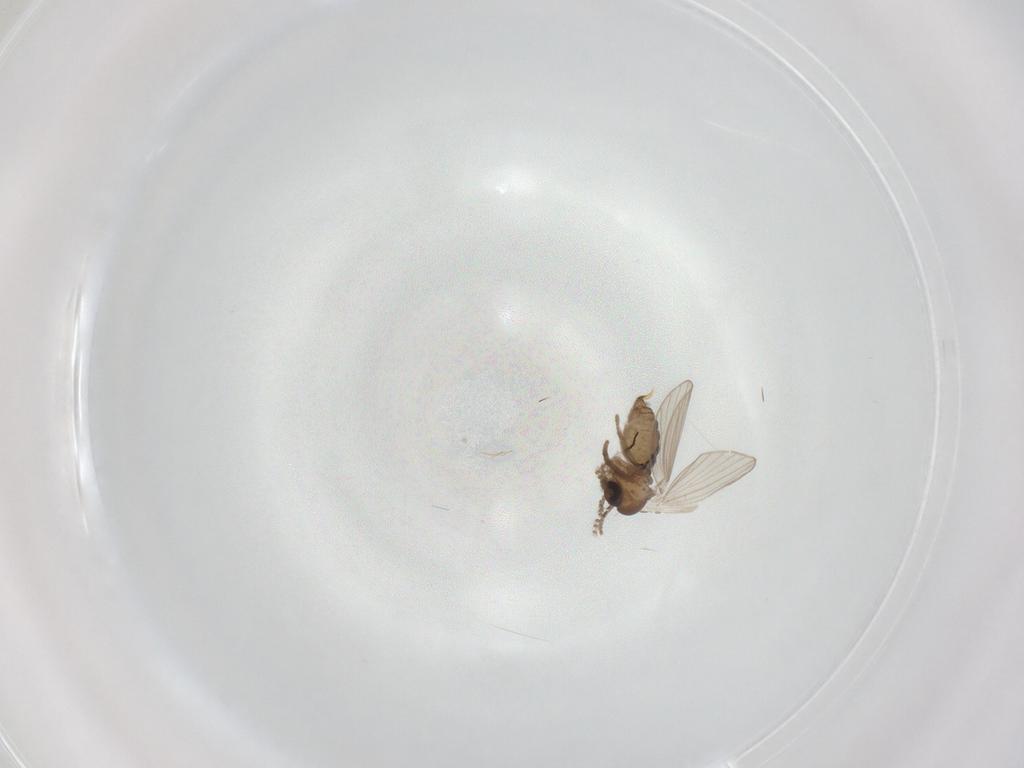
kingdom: Animalia
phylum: Arthropoda
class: Insecta
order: Diptera
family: Psychodidae
